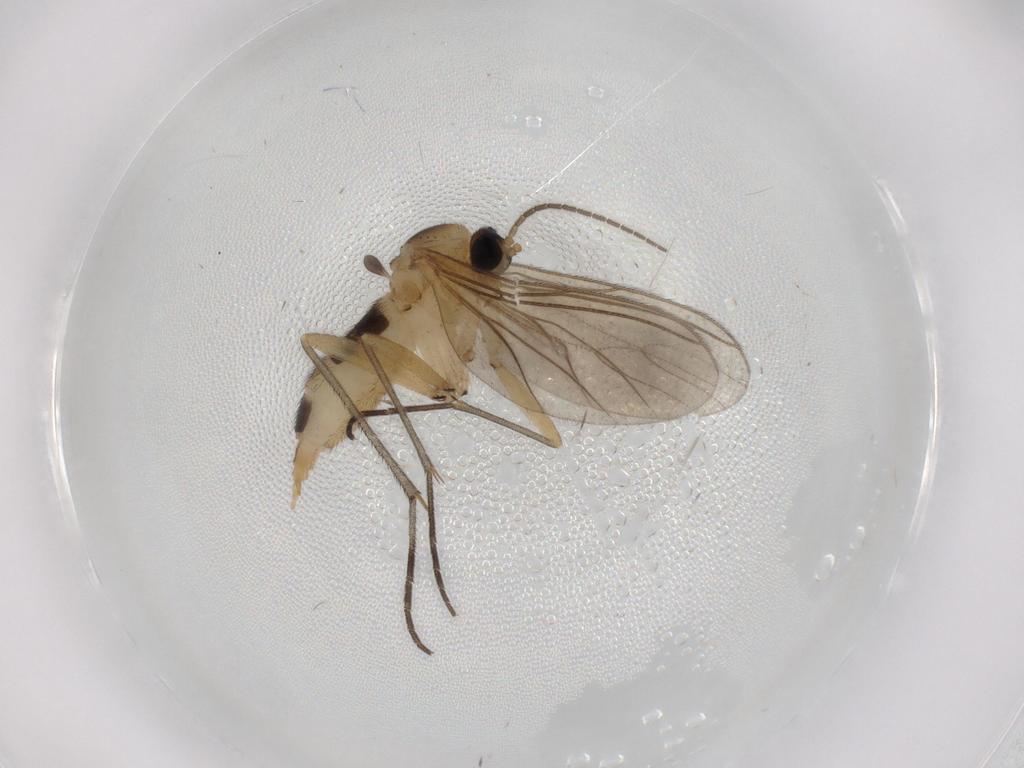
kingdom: Animalia
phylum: Arthropoda
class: Insecta
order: Diptera
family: Sciaridae
